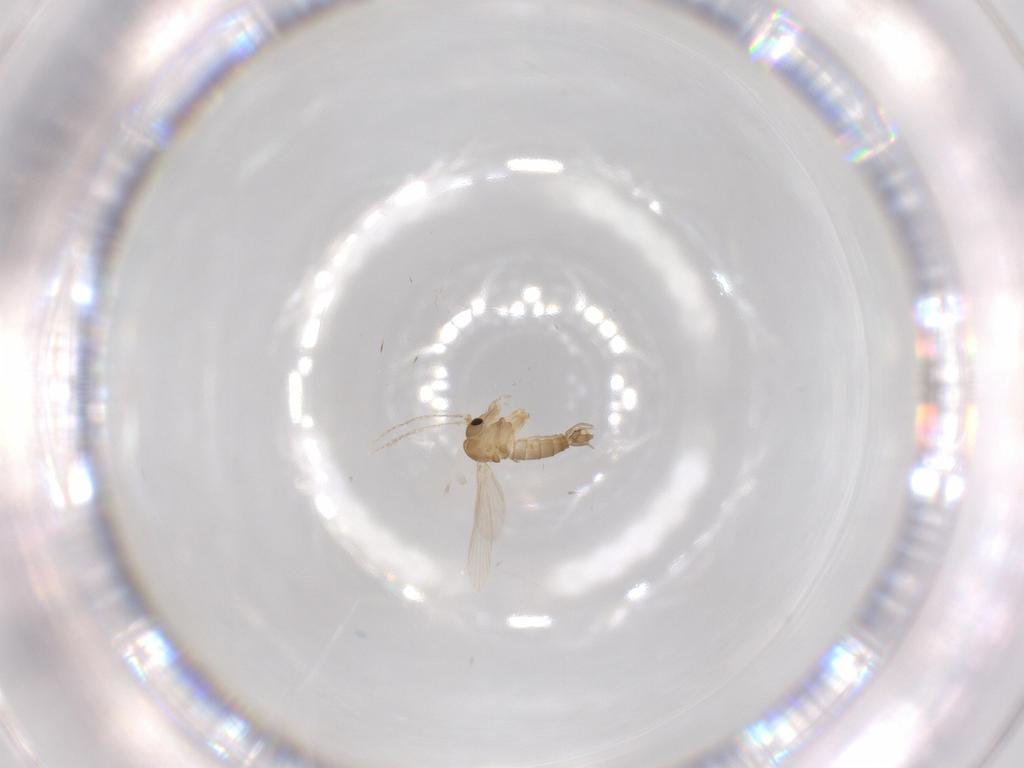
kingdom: Animalia
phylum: Arthropoda
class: Insecta
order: Diptera
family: Psychodidae
